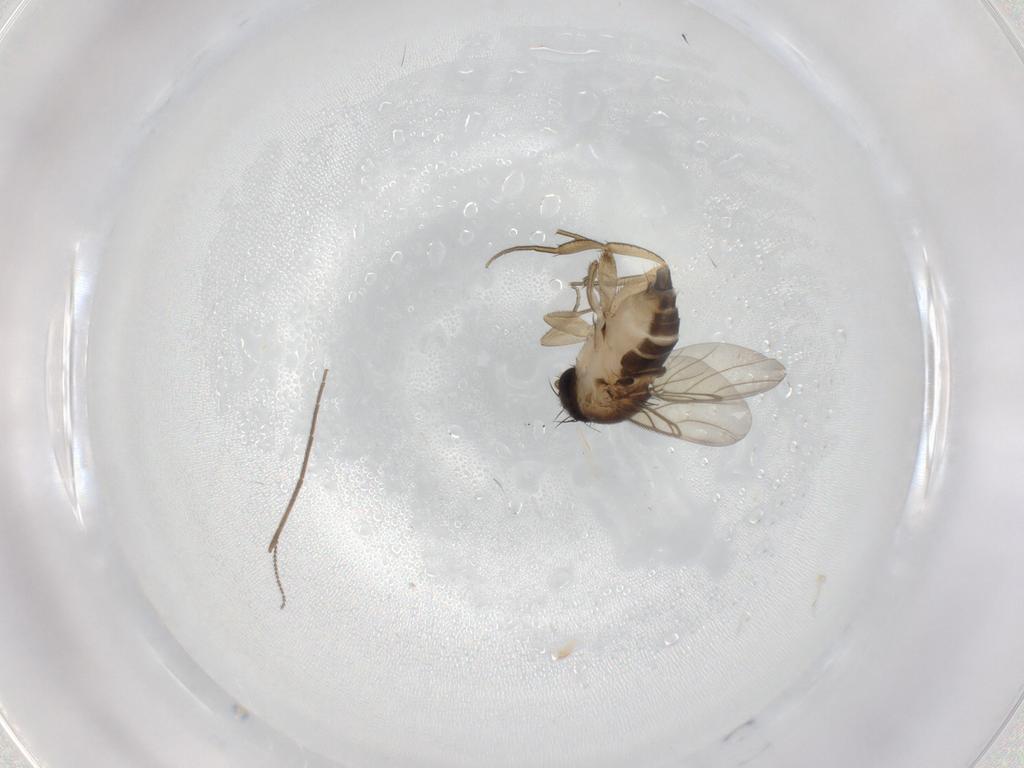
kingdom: Animalia
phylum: Arthropoda
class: Insecta
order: Diptera
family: Phoridae
